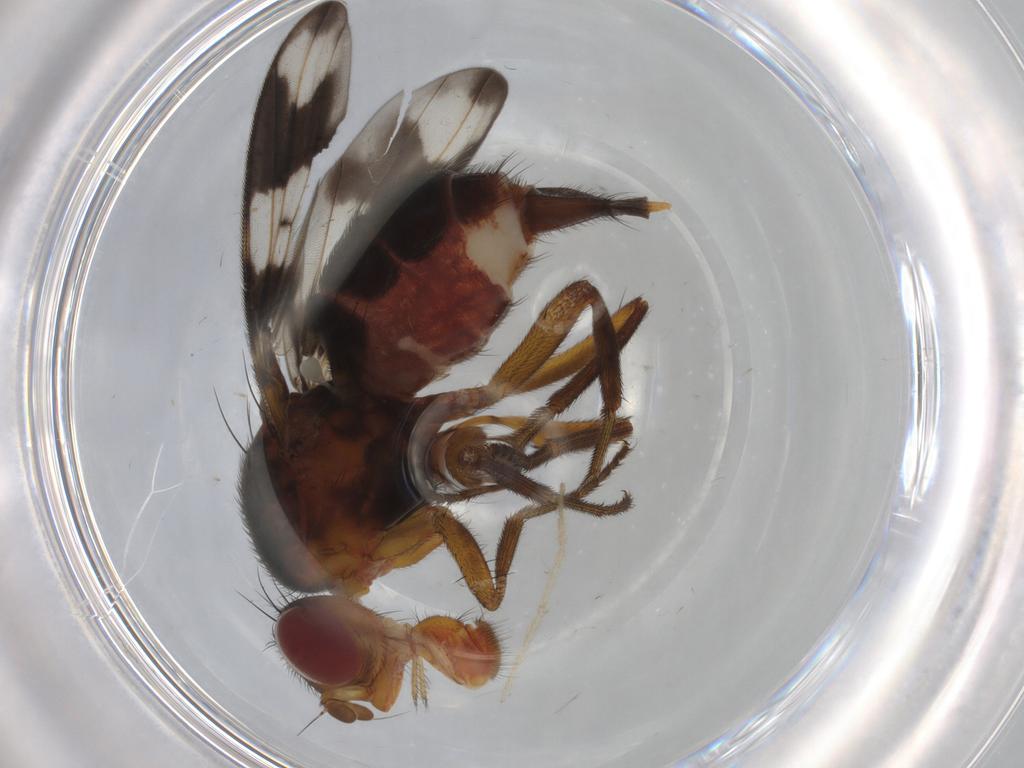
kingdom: Animalia
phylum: Arthropoda
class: Insecta
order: Diptera
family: Richardiidae
